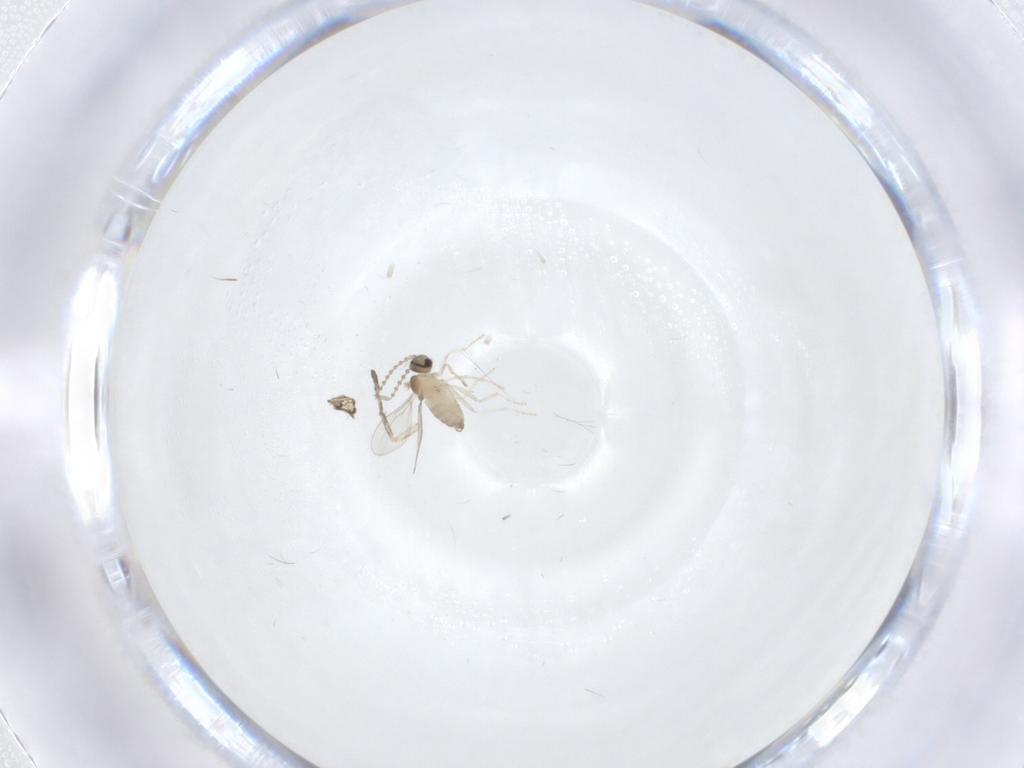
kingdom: Animalia
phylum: Arthropoda
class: Insecta
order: Diptera
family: Cecidomyiidae
